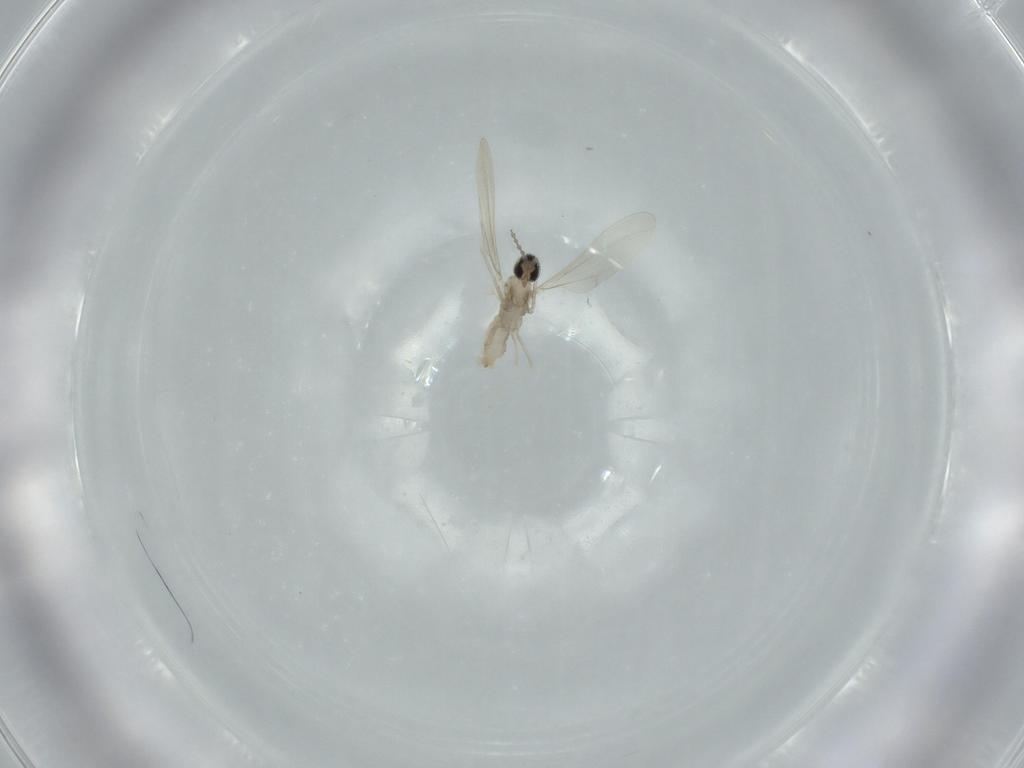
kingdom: Animalia
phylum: Arthropoda
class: Insecta
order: Diptera
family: Cecidomyiidae
